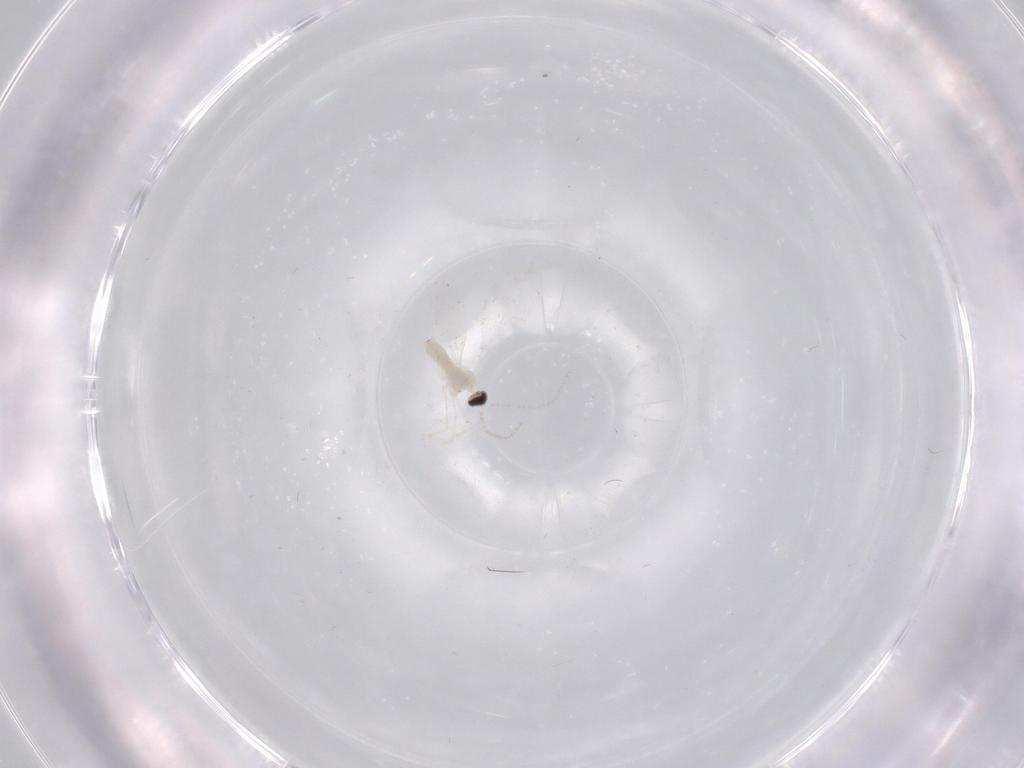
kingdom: Animalia
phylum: Arthropoda
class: Insecta
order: Diptera
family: Cecidomyiidae
